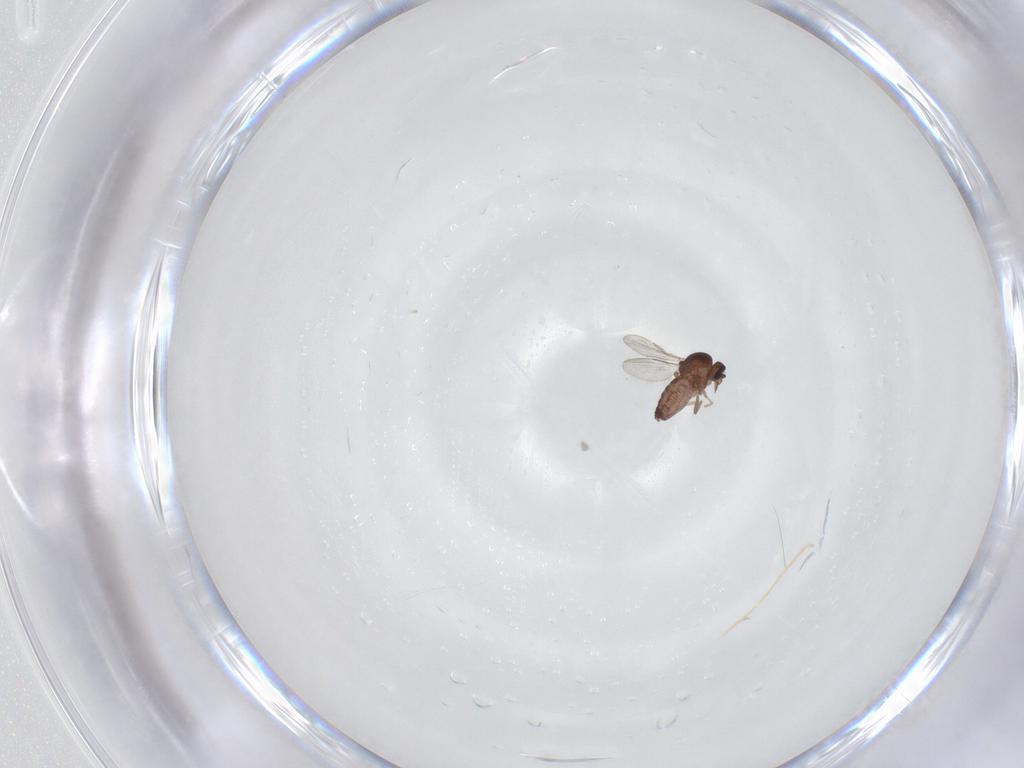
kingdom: Animalia
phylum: Arthropoda
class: Insecta
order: Diptera
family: Ceratopogonidae
